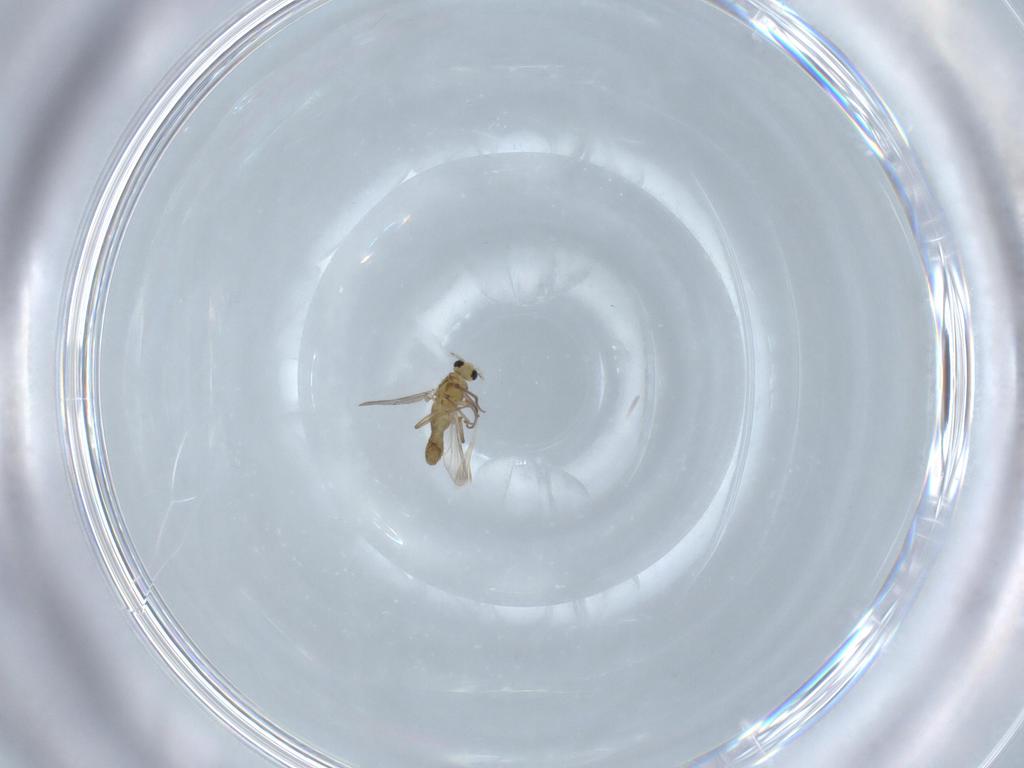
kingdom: Animalia
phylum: Arthropoda
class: Insecta
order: Diptera
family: Chironomidae
